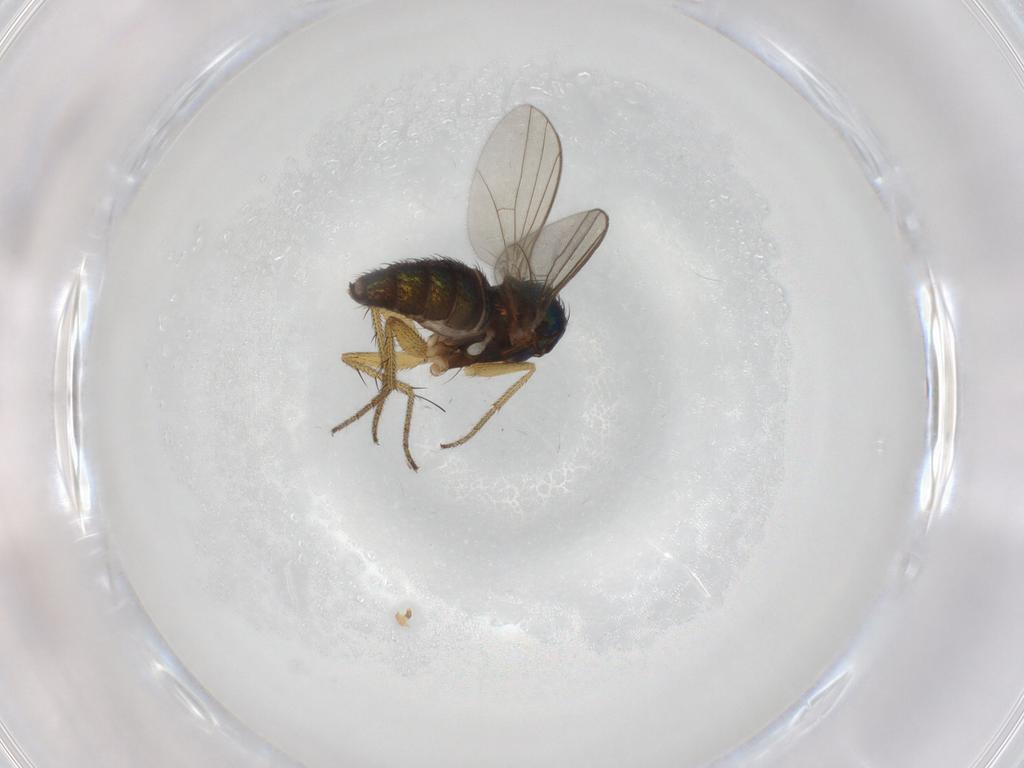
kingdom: Animalia
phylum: Arthropoda
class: Insecta
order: Diptera
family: Dolichopodidae
